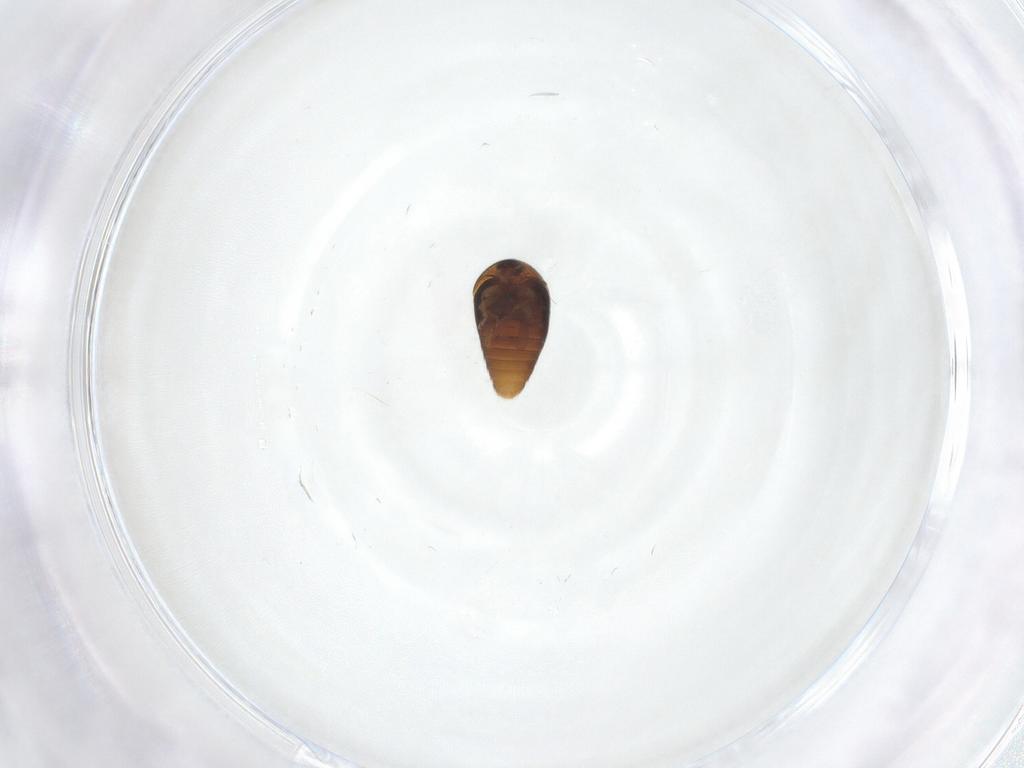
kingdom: Animalia
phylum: Arthropoda
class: Insecta
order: Coleoptera
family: Corylophidae
